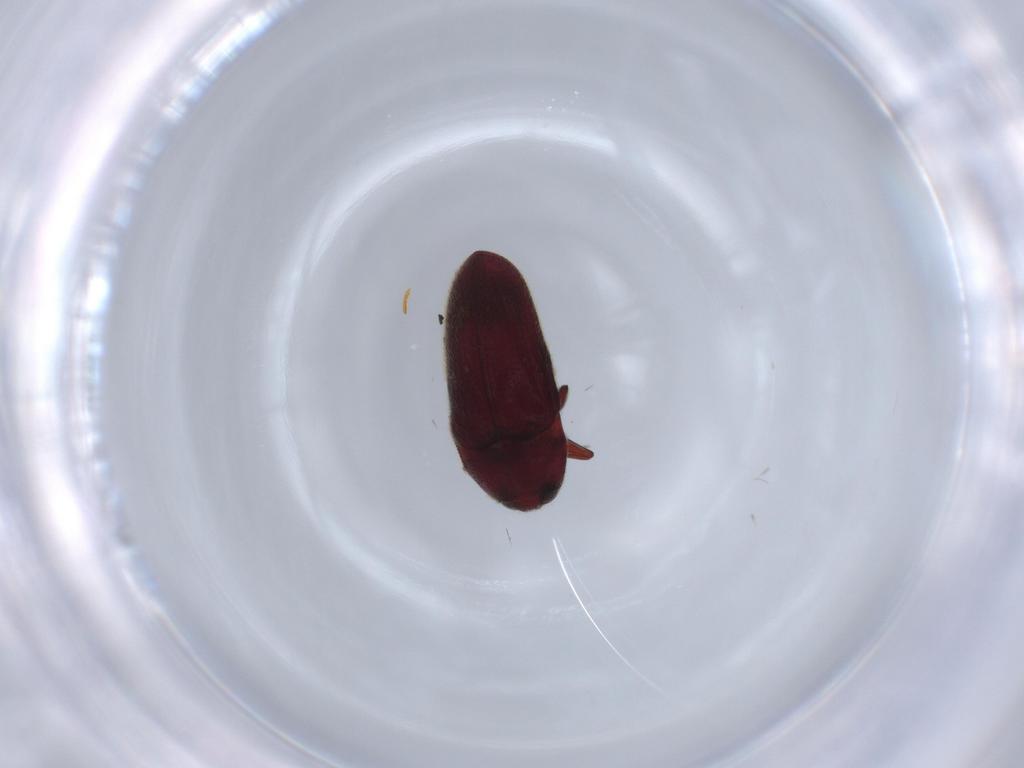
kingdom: Animalia
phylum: Arthropoda
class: Insecta
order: Coleoptera
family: Throscidae
